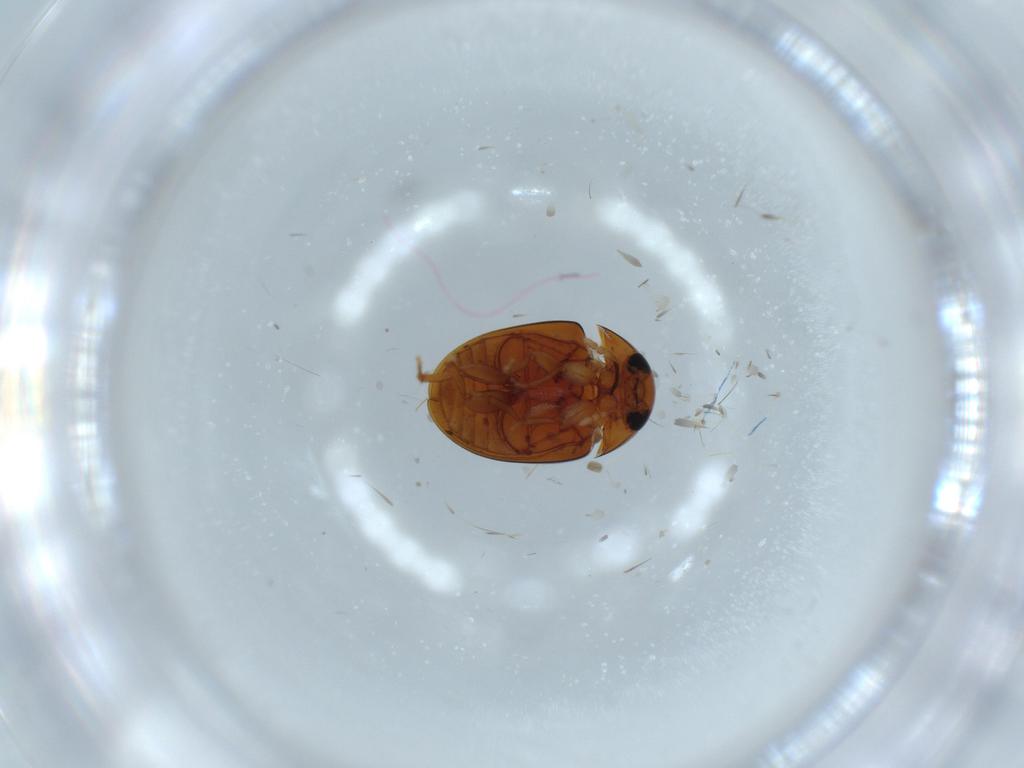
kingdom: Animalia
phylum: Arthropoda
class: Insecta
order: Coleoptera
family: Phalacridae
